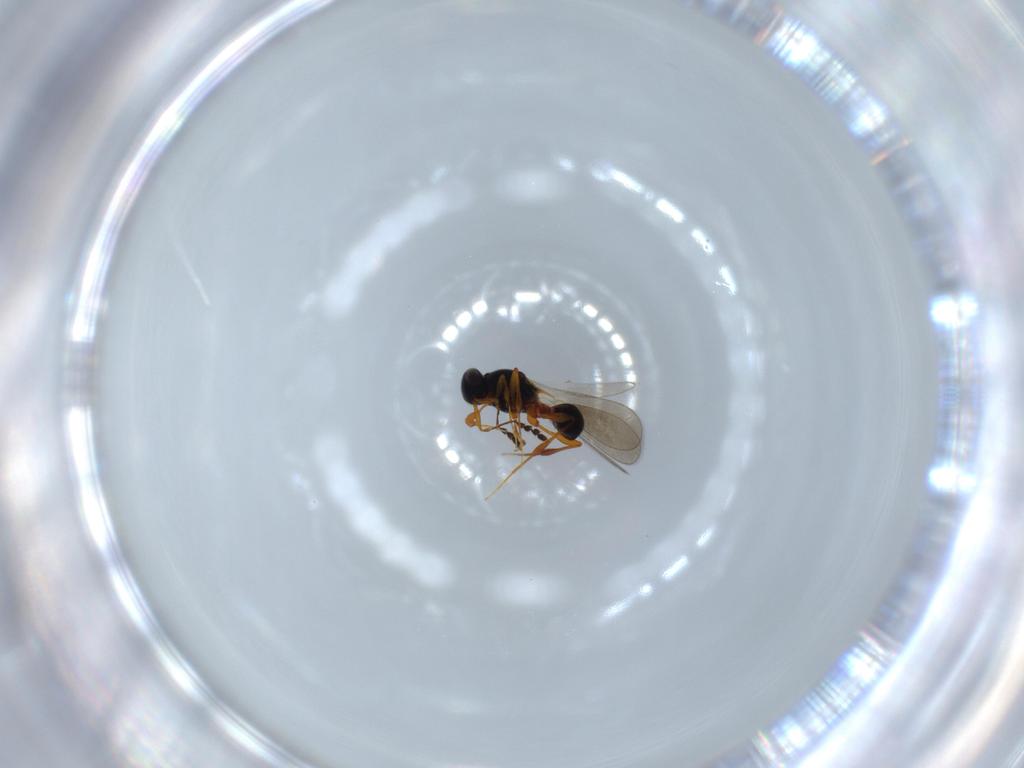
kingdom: Animalia
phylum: Arthropoda
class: Insecta
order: Hymenoptera
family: Platygastridae
